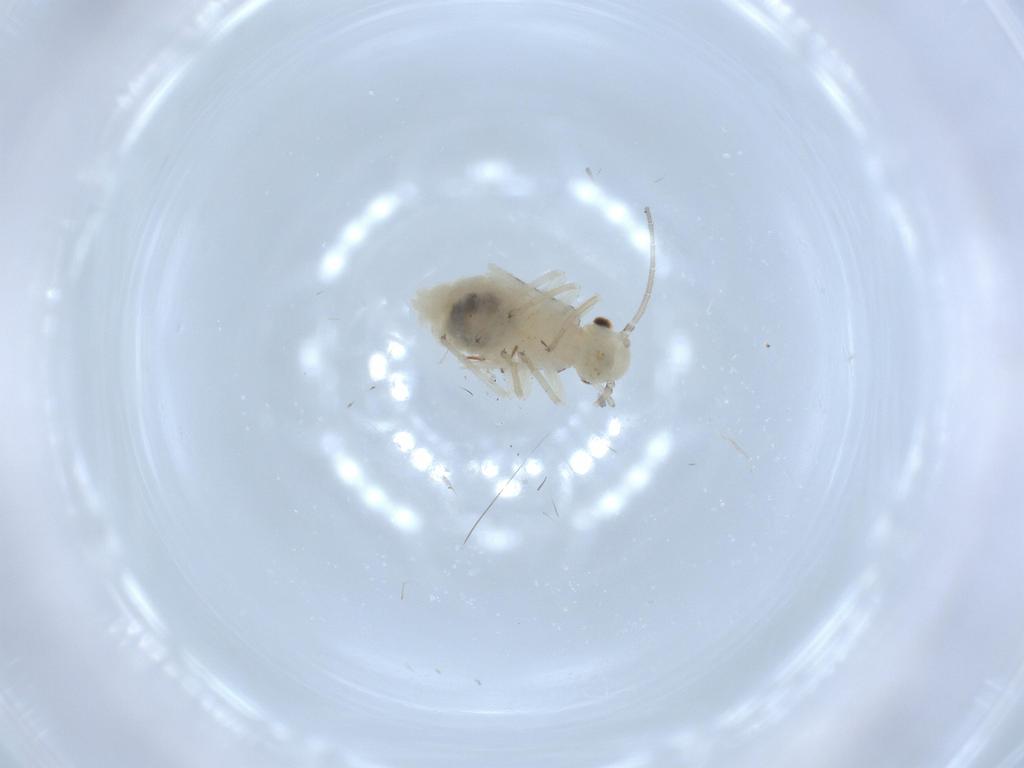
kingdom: Animalia
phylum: Arthropoda
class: Insecta
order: Psocodea
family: Caeciliusidae
